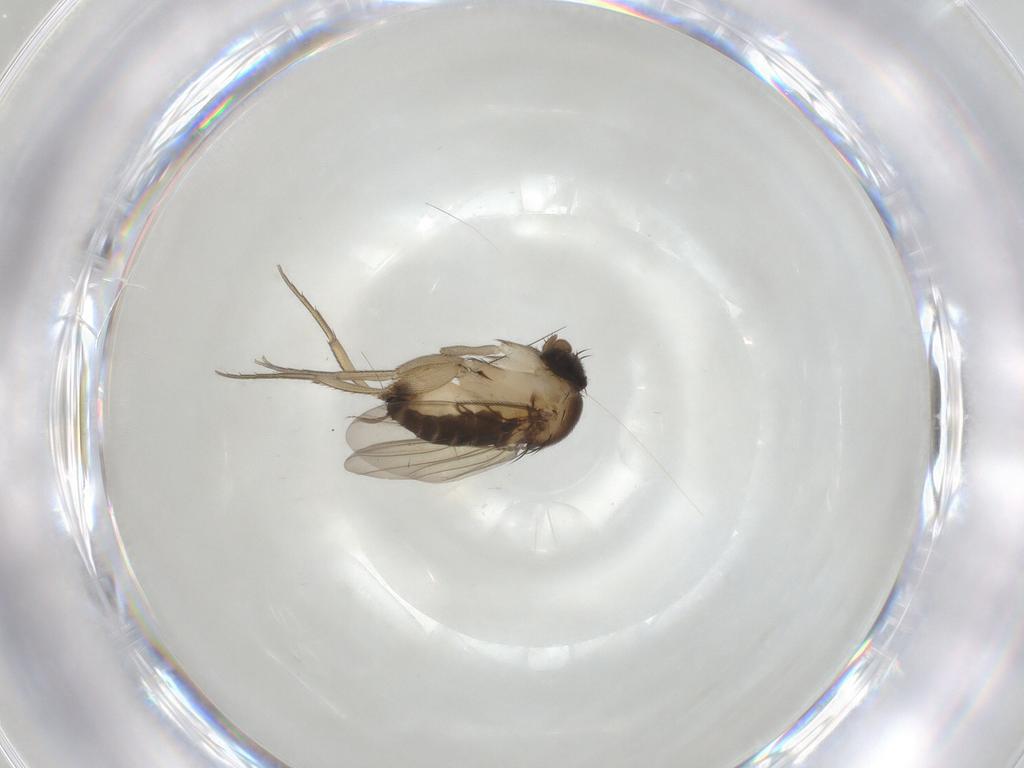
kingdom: Animalia
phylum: Arthropoda
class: Insecta
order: Diptera
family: Phoridae
